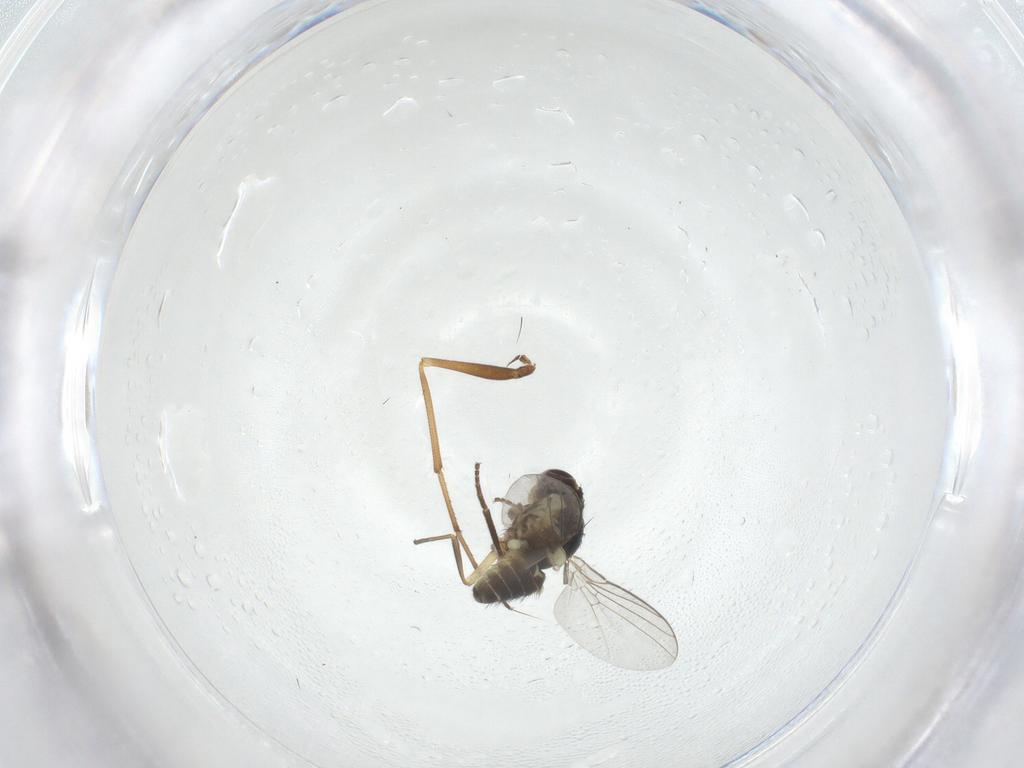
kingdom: Animalia
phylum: Arthropoda
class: Insecta
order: Diptera
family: Agromyzidae
